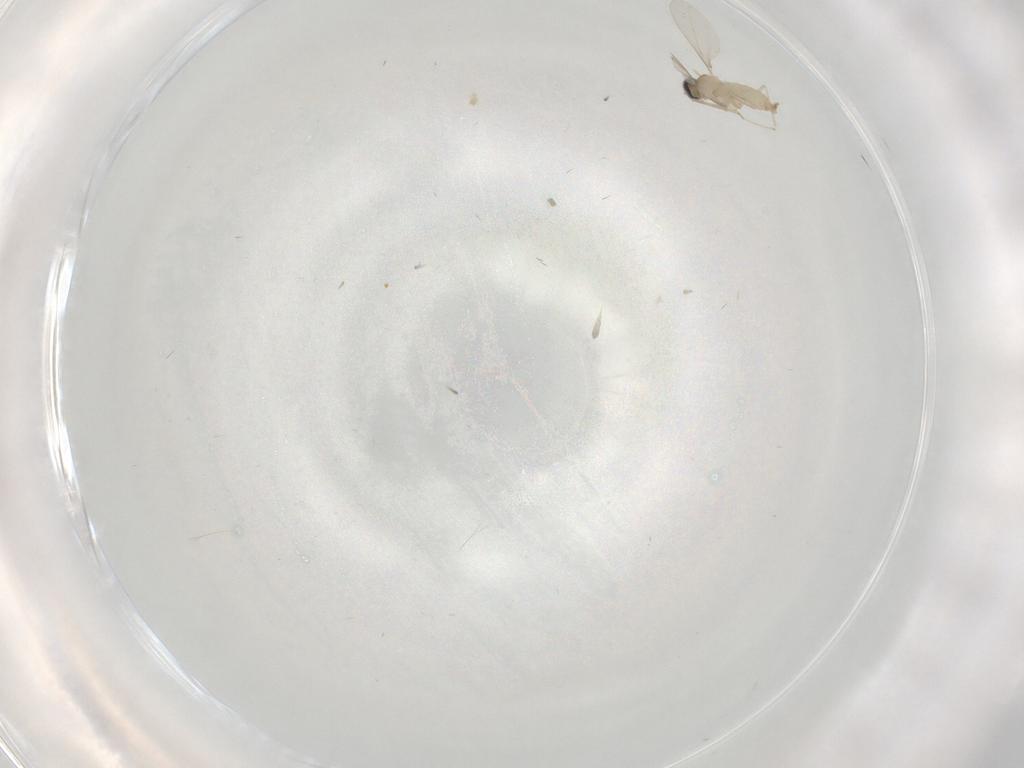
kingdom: Animalia
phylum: Arthropoda
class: Insecta
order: Diptera
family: Cecidomyiidae
